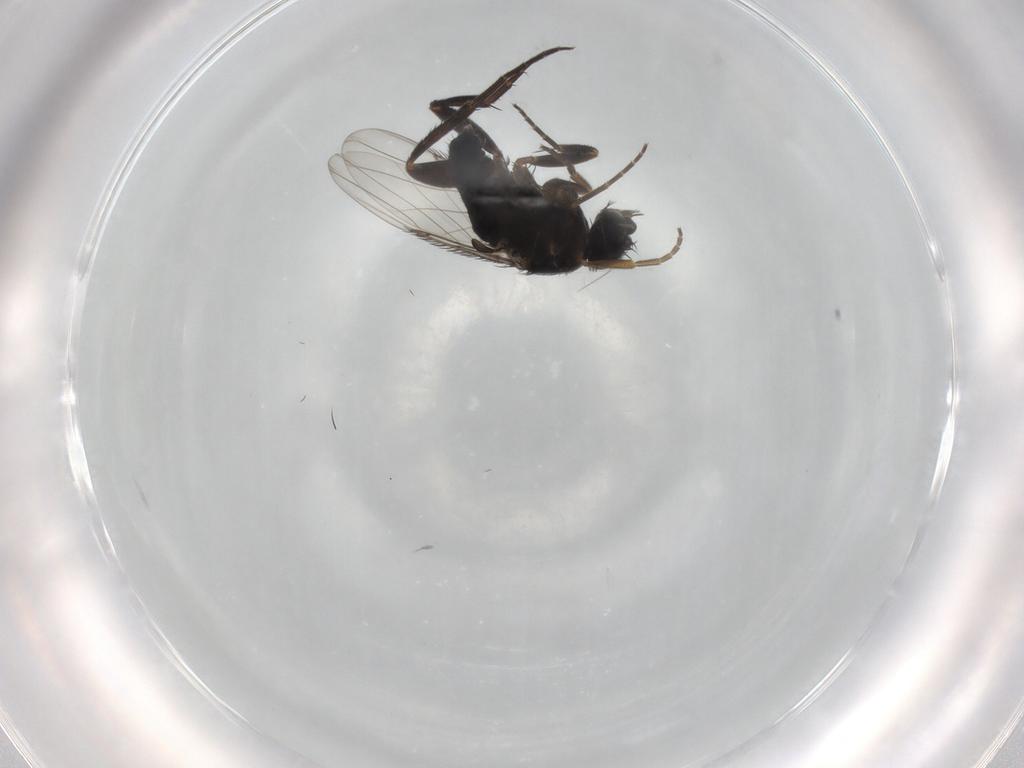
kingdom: Animalia
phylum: Arthropoda
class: Insecta
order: Diptera
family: Phoridae
